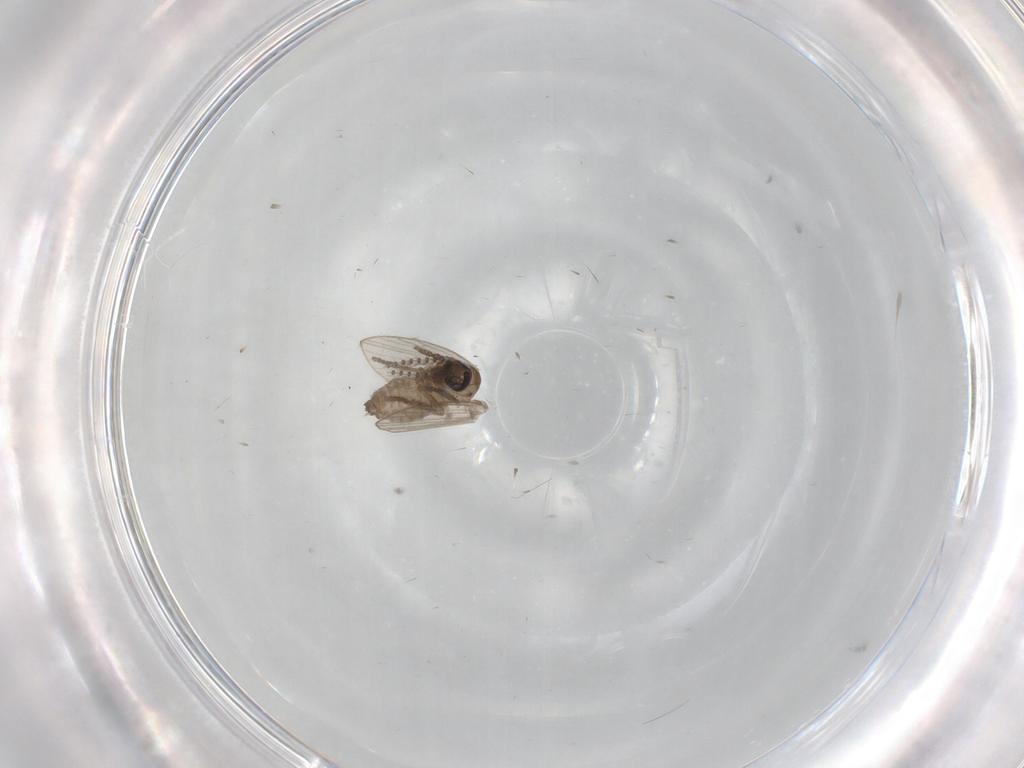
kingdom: Animalia
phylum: Arthropoda
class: Insecta
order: Diptera
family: Psychodidae
